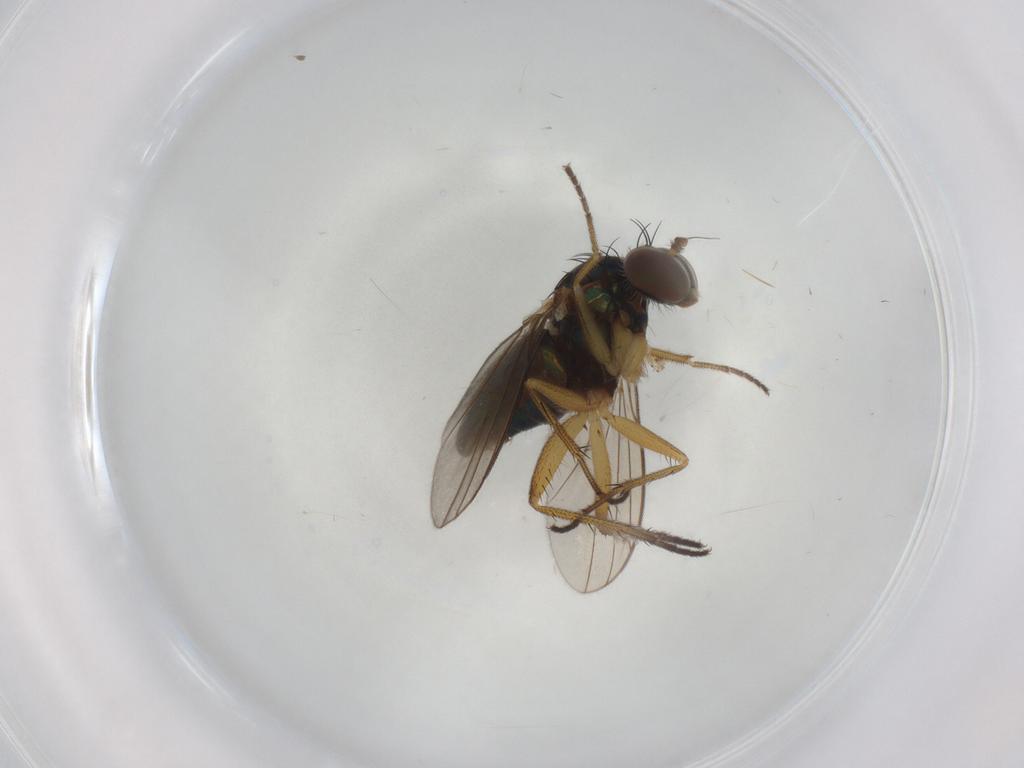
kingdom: Animalia
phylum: Arthropoda
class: Insecta
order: Diptera
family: Dolichopodidae
